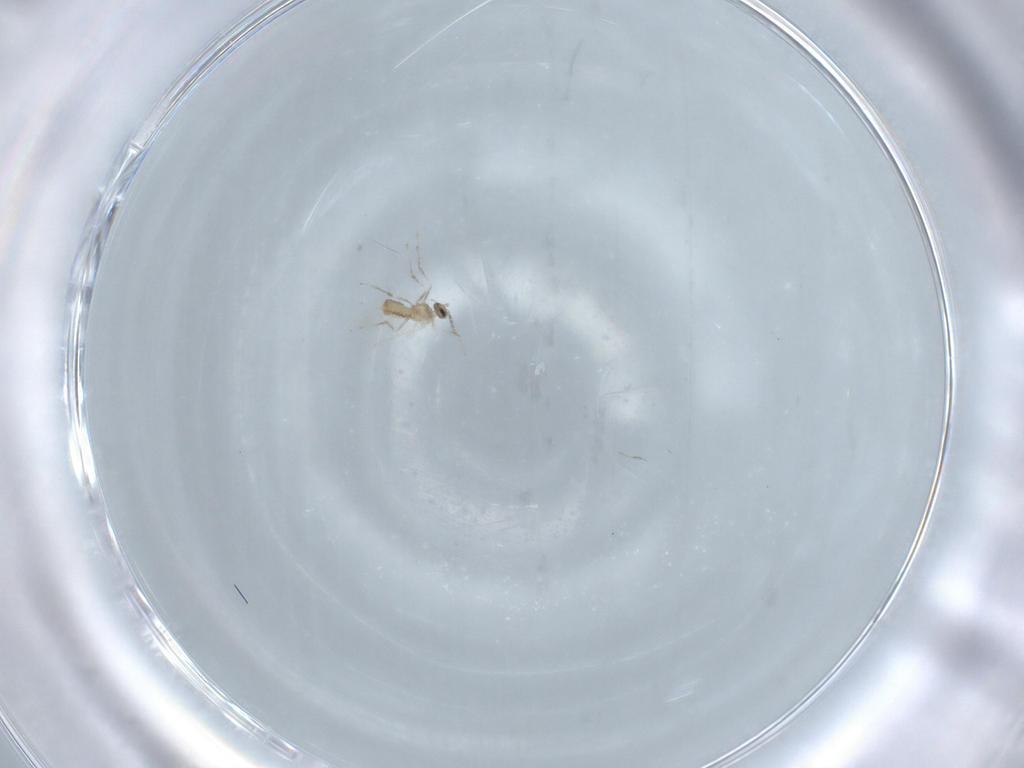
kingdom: Animalia
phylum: Arthropoda
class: Insecta
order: Diptera
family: Cecidomyiidae
